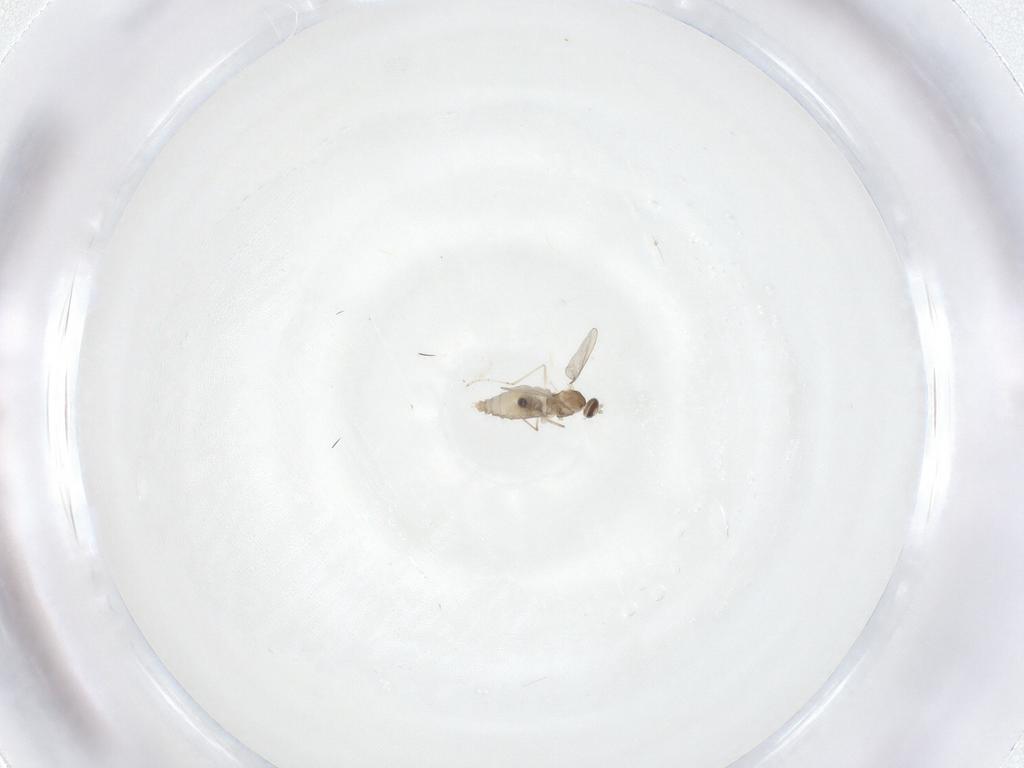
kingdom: Animalia
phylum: Arthropoda
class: Insecta
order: Diptera
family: Cecidomyiidae
